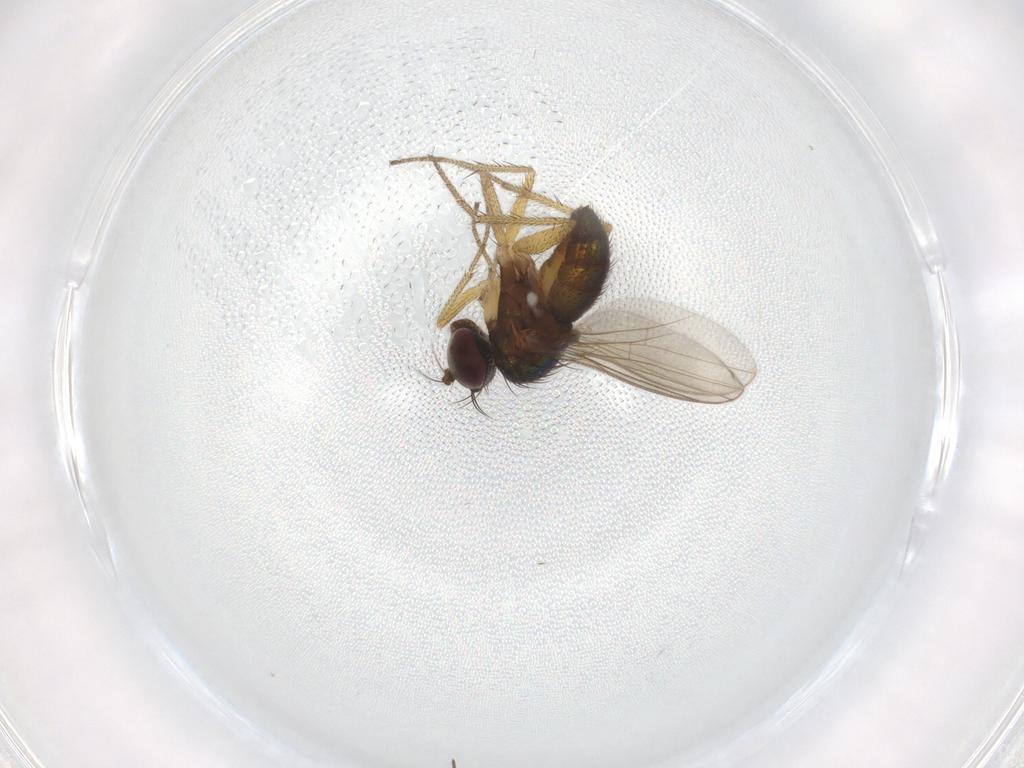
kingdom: Animalia
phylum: Arthropoda
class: Insecta
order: Diptera
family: Dolichopodidae
